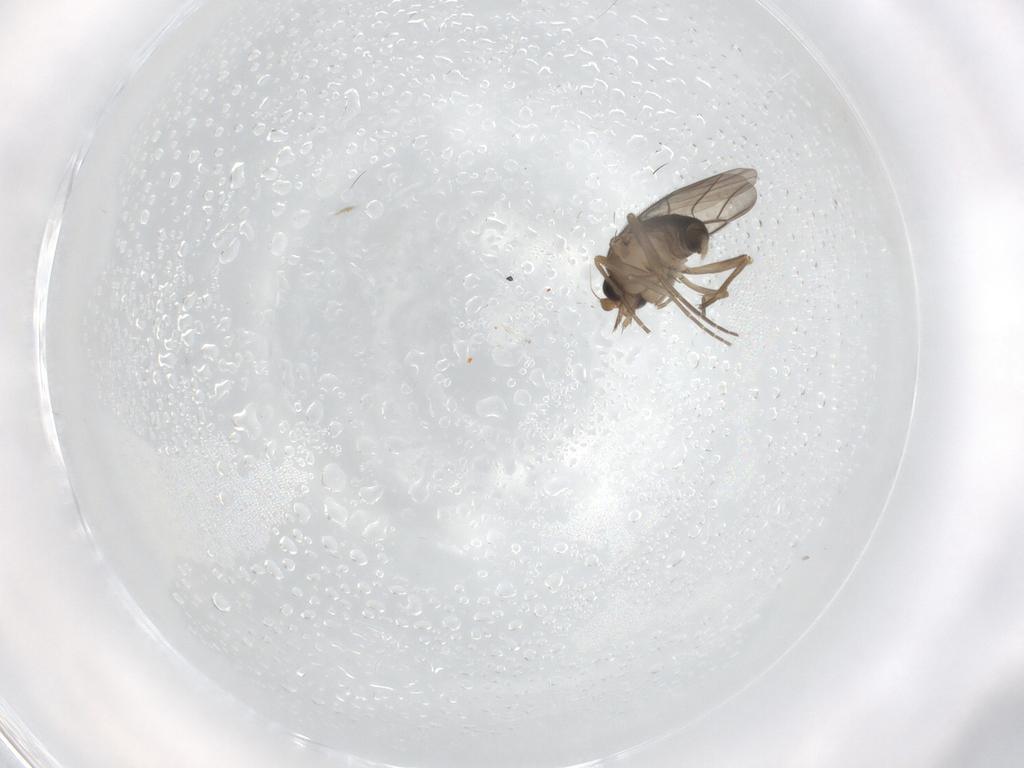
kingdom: Animalia
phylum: Arthropoda
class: Insecta
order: Diptera
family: Phoridae
